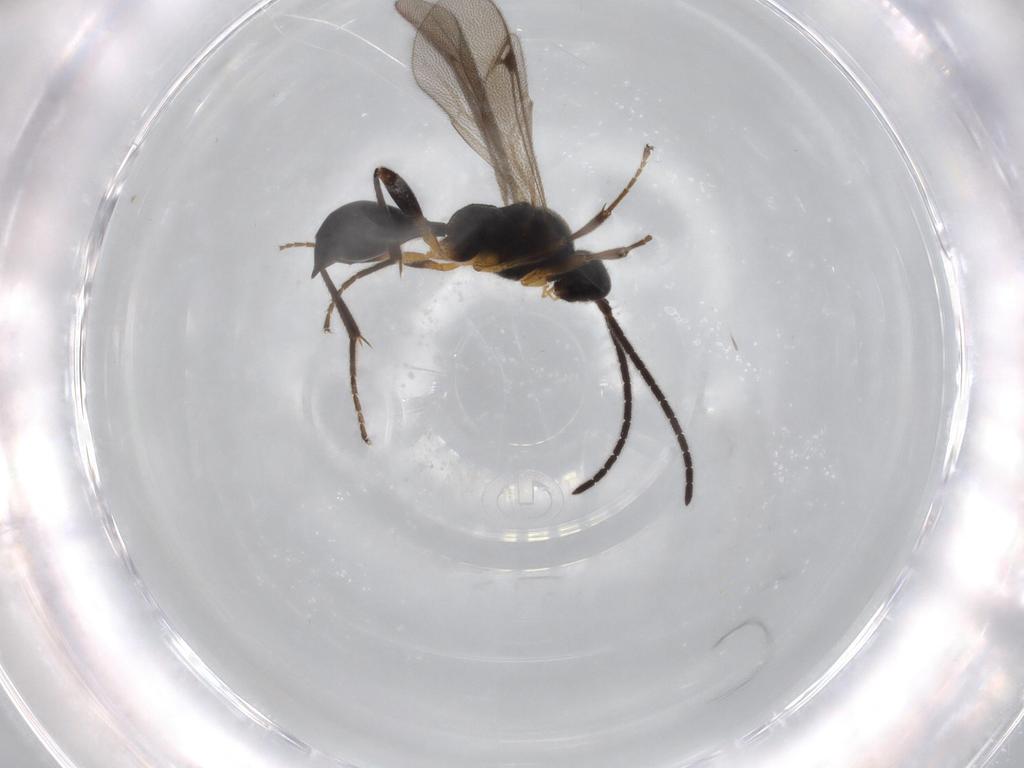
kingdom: Animalia
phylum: Arthropoda
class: Insecta
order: Hymenoptera
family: Proctotrupidae
